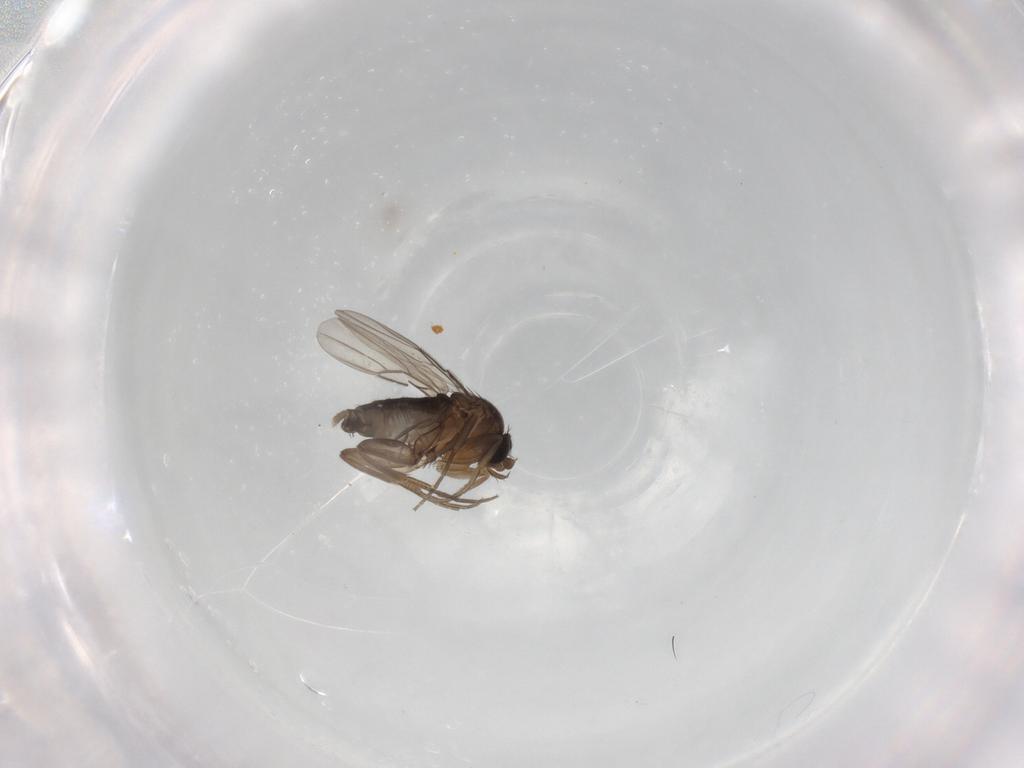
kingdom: Animalia
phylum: Arthropoda
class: Insecta
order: Diptera
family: Phoridae
